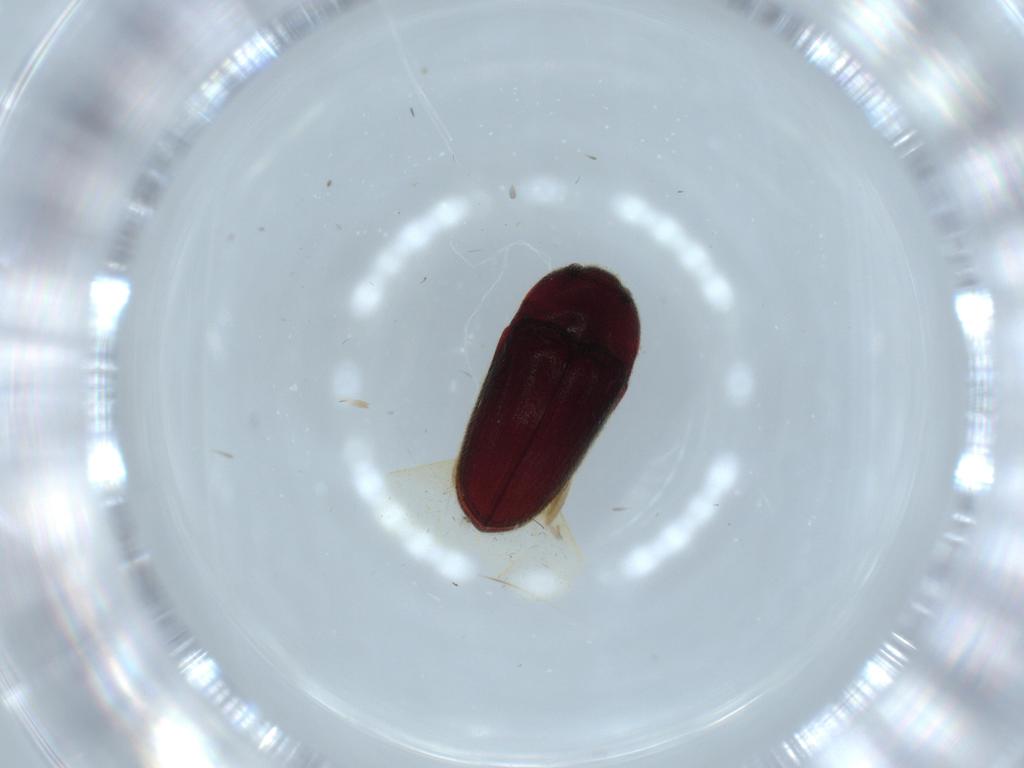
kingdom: Animalia
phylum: Arthropoda
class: Insecta
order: Coleoptera
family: Throscidae
